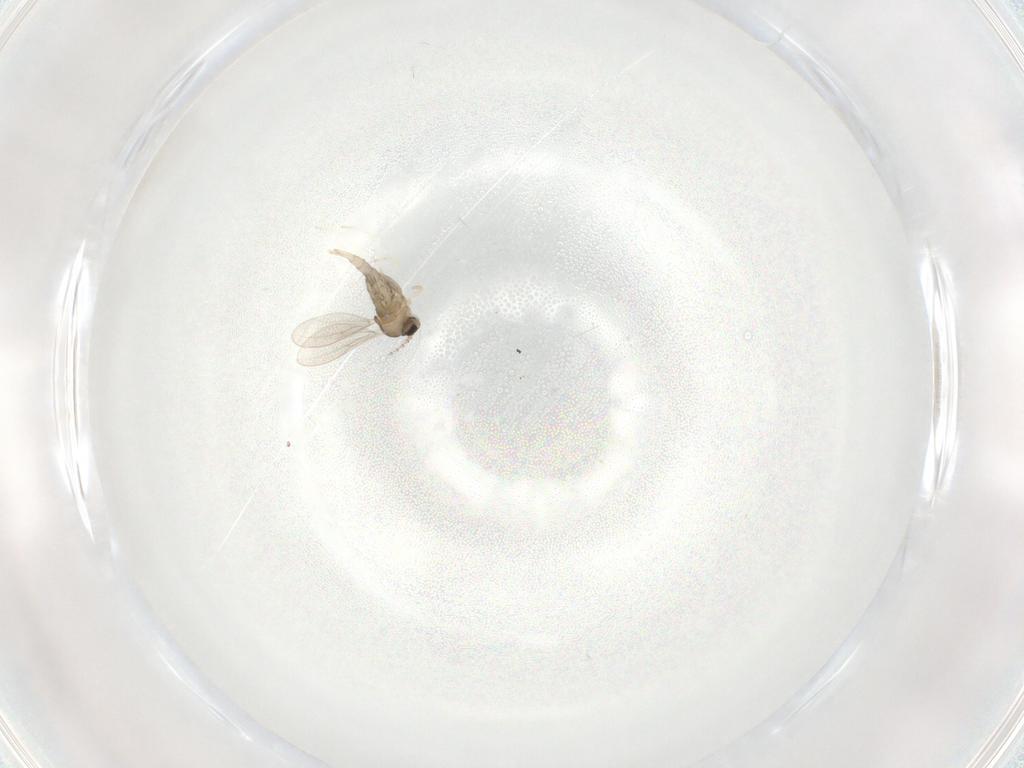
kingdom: Animalia
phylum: Arthropoda
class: Insecta
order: Diptera
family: Cecidomyiidae
